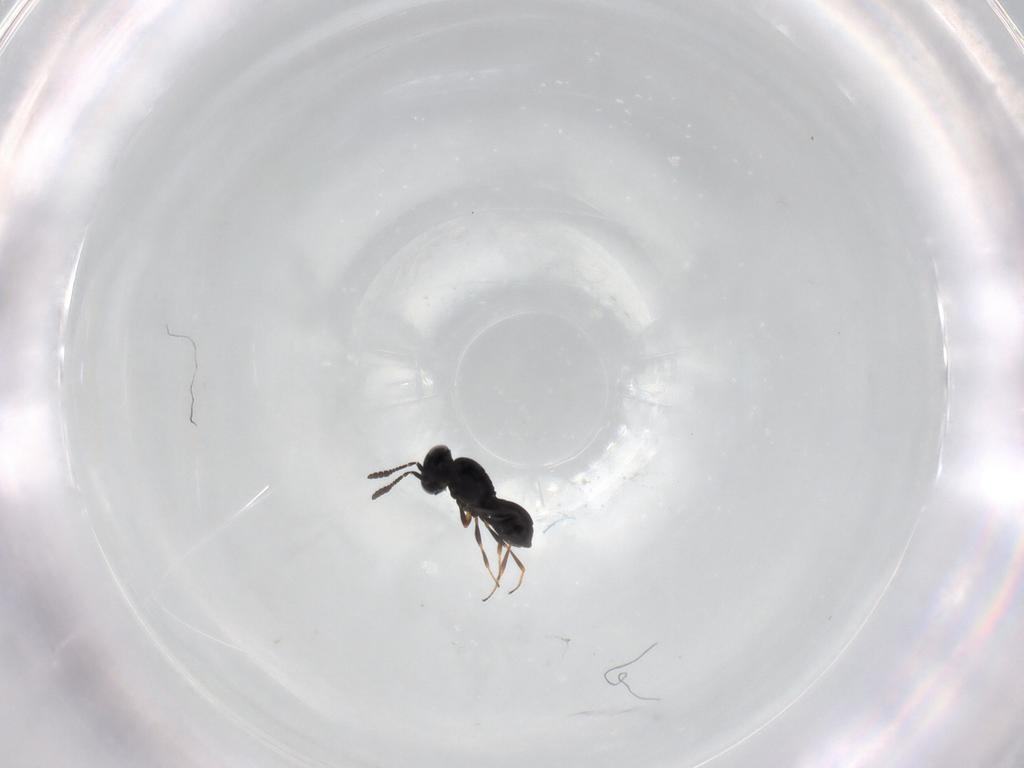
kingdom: Animalia
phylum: Arthropoda
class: Insecta
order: Hymenoptera
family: Scelionidae
